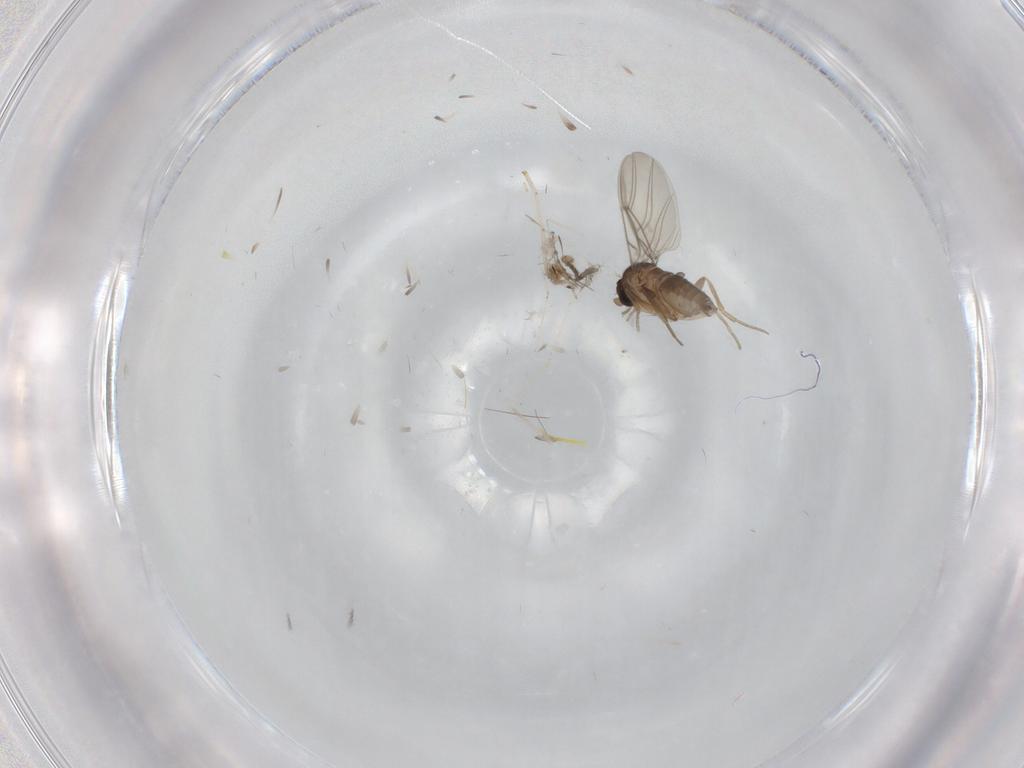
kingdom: Animalia
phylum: Arthropoda
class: Insecta
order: Diptera
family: Phoridae
